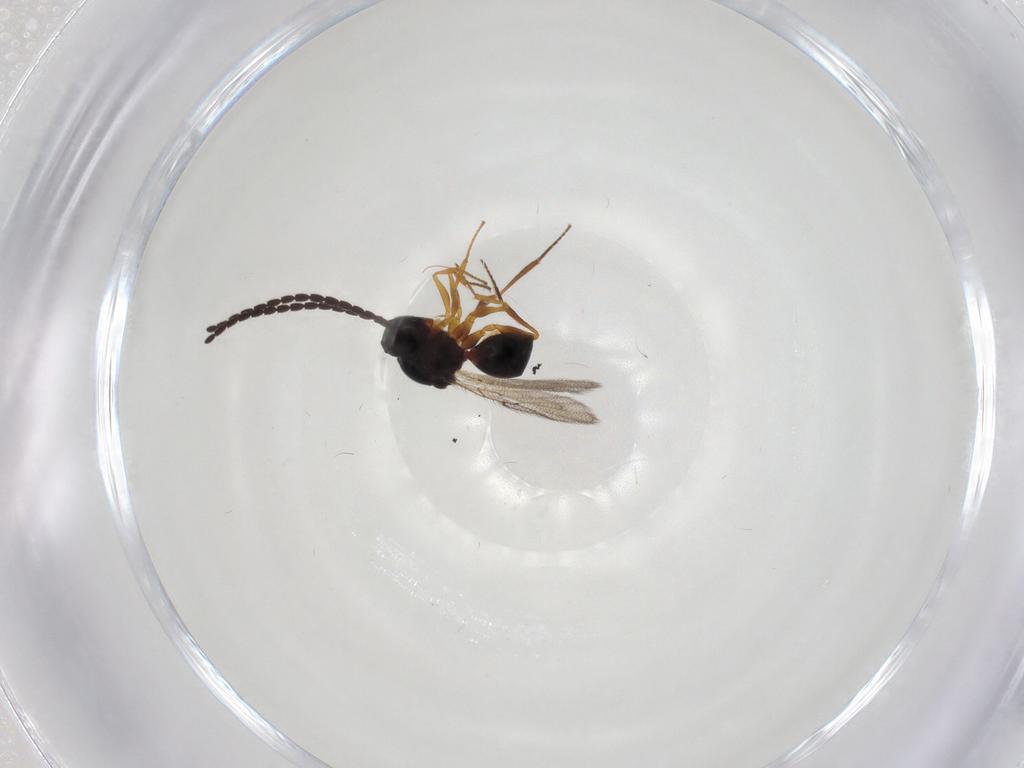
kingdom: Animalia
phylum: Arthropoda
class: Insecta
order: Hymenoptera
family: Figitidae
